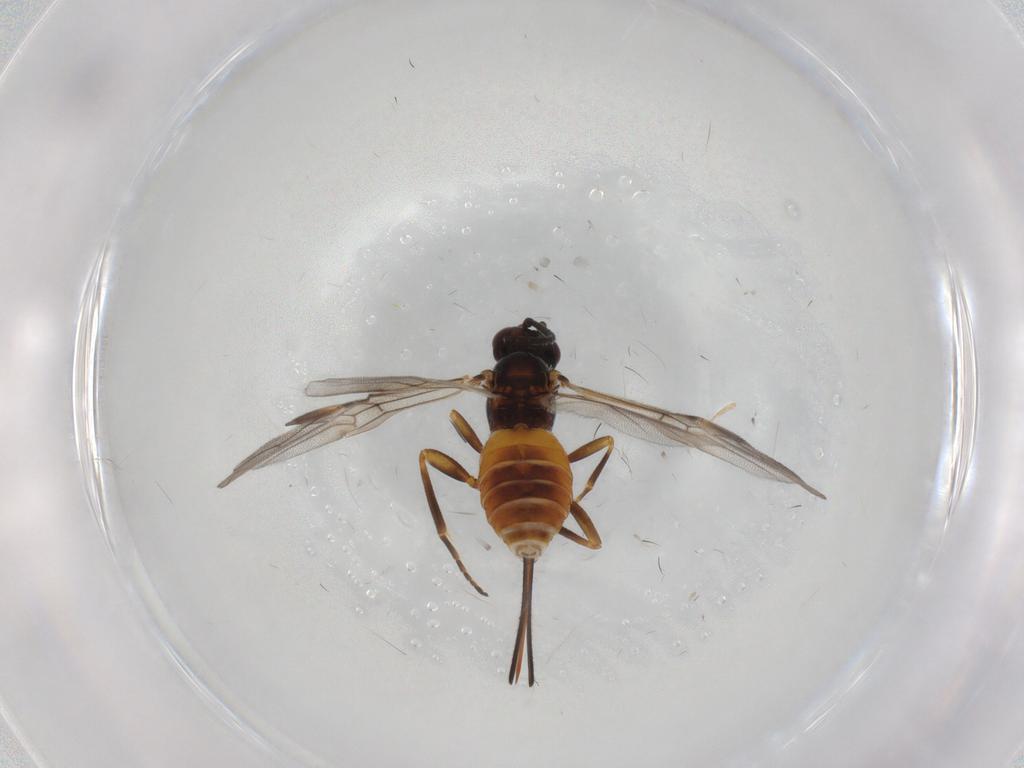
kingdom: Animalia
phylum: Arthropoda
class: Insecta
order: Hymenoptera
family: Braconidae
